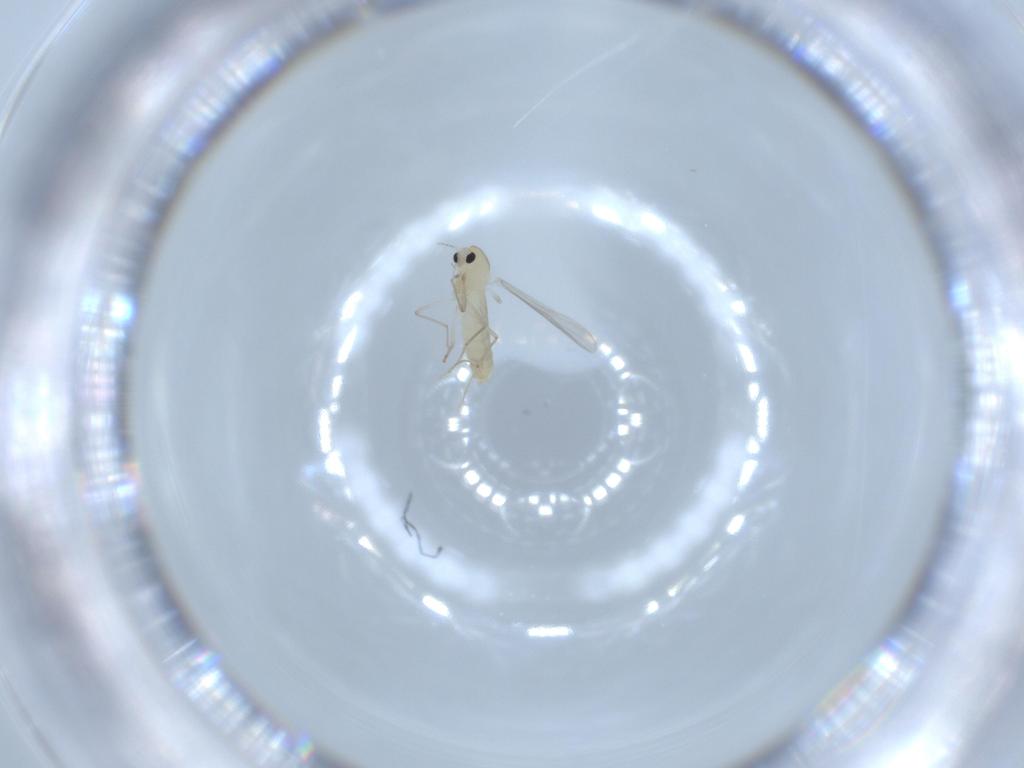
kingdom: Animalia
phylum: Arthropoda
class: Insecta
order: Diptera
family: Chironomidae
